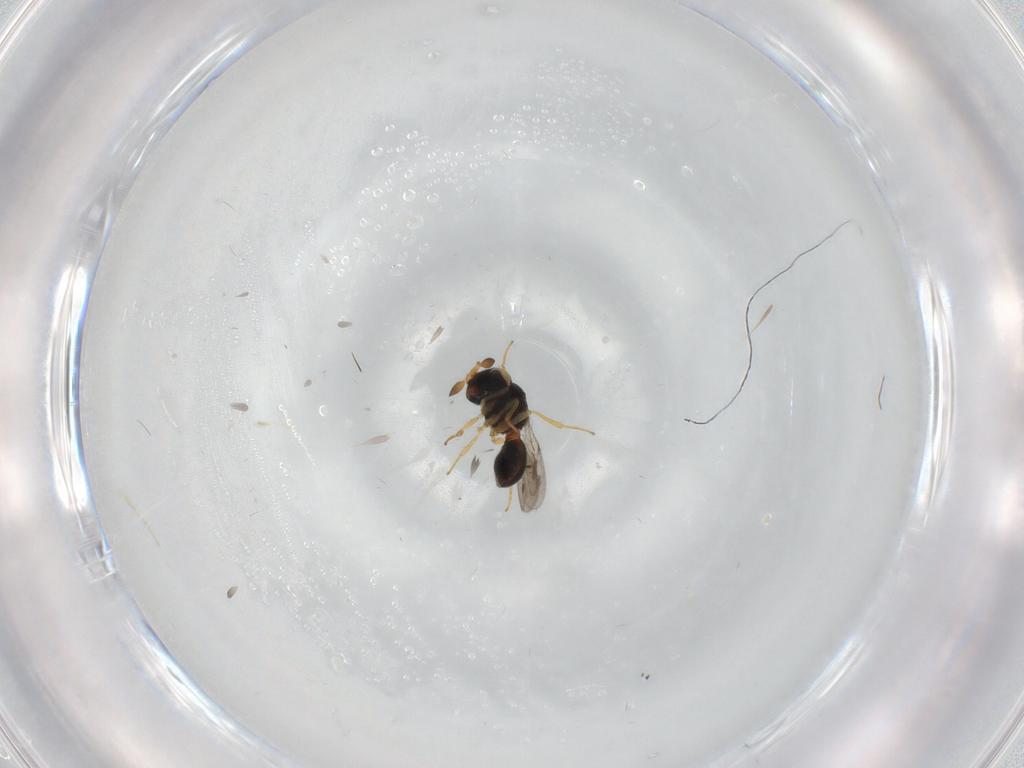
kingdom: Animalia
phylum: Arthropoda
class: Insecta
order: Hymenoptera
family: Scelionidae
